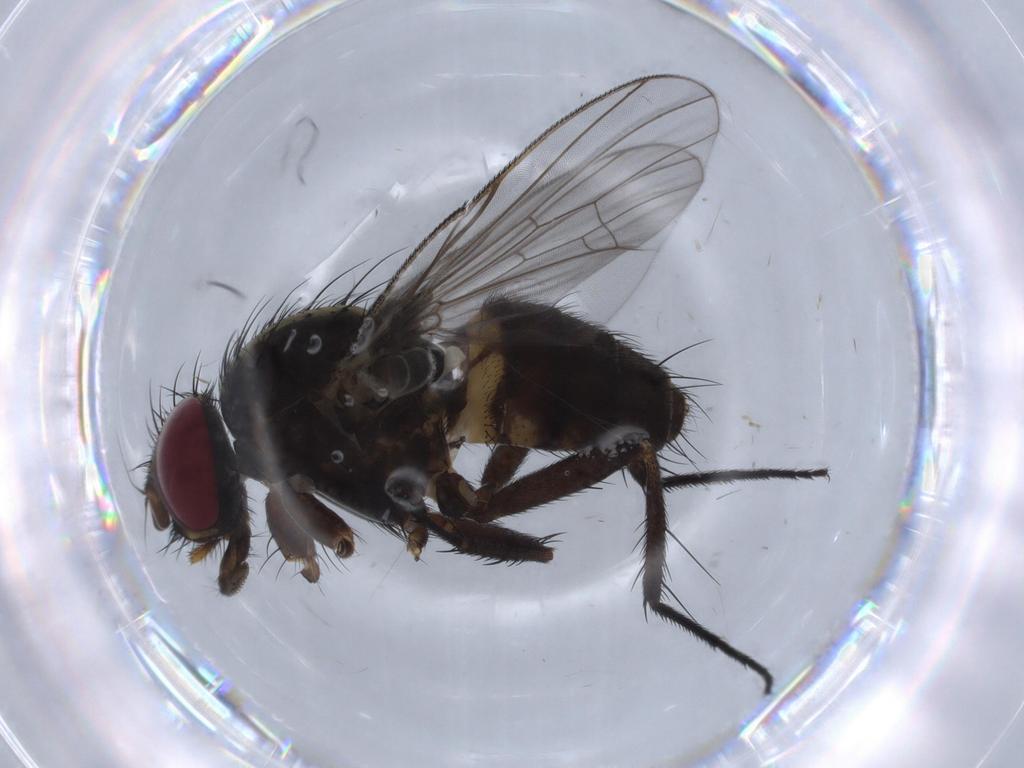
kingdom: Animalia
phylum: Arthropoda
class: Insecta
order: Diptera
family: Fannia
